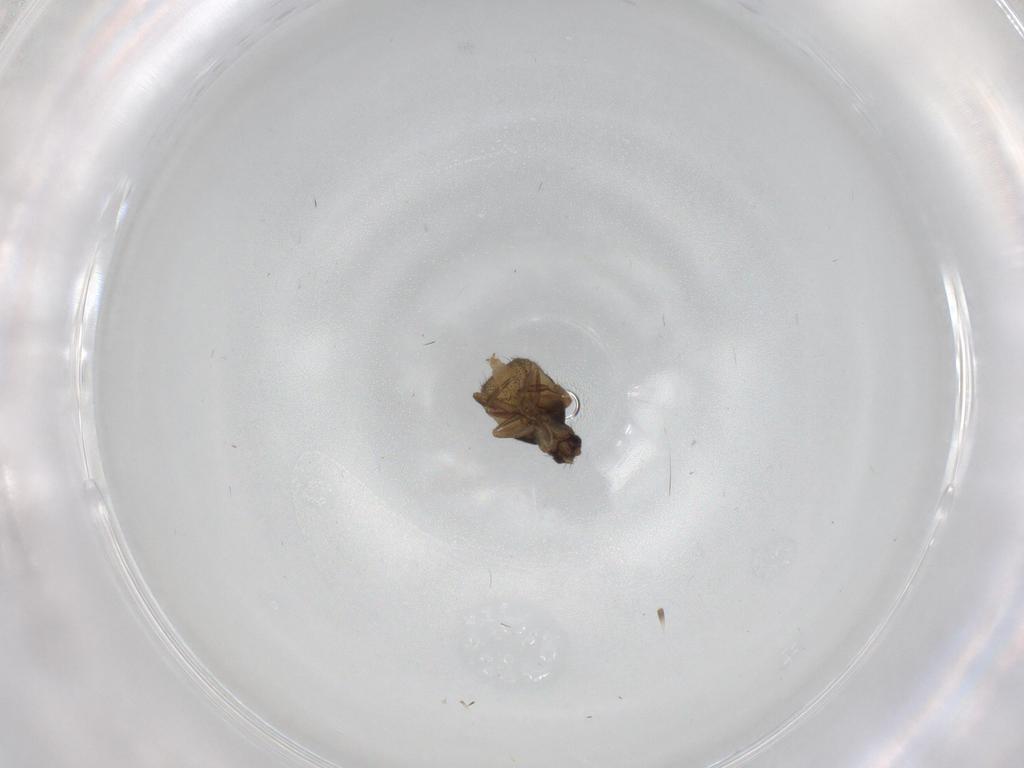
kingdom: Animalia
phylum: Arthropoda
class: Insecta
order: Diptera
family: Phoridae
